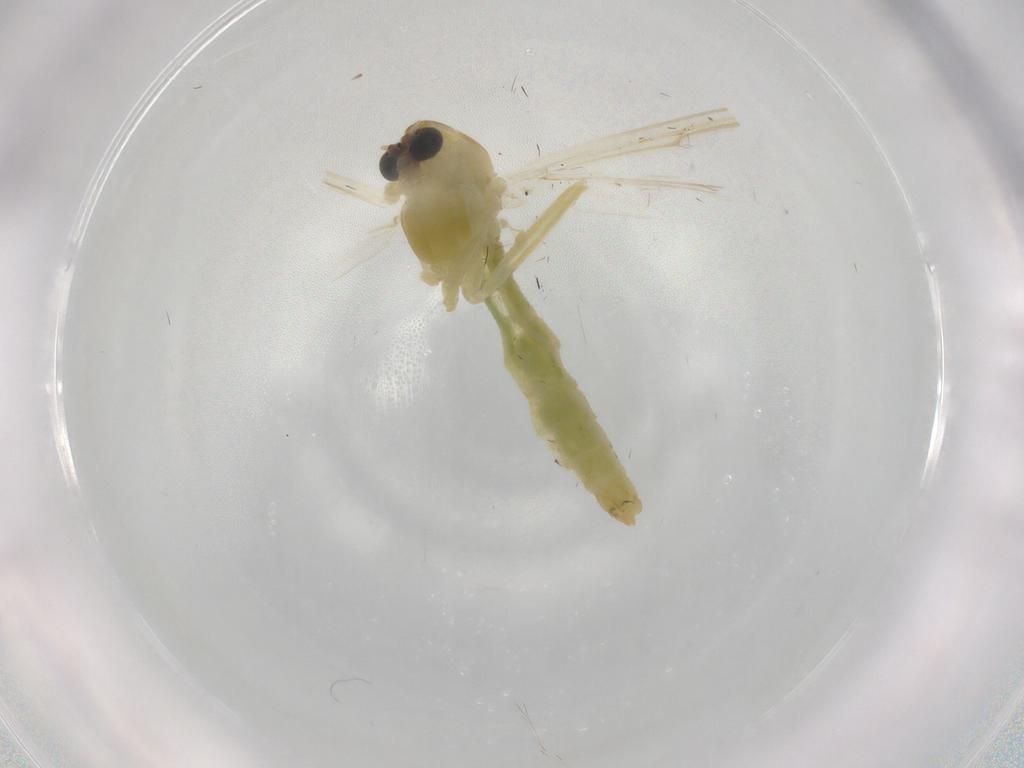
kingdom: Animalia
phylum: Arthropoda
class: Insecta
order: Diptera
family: Chironomidae
